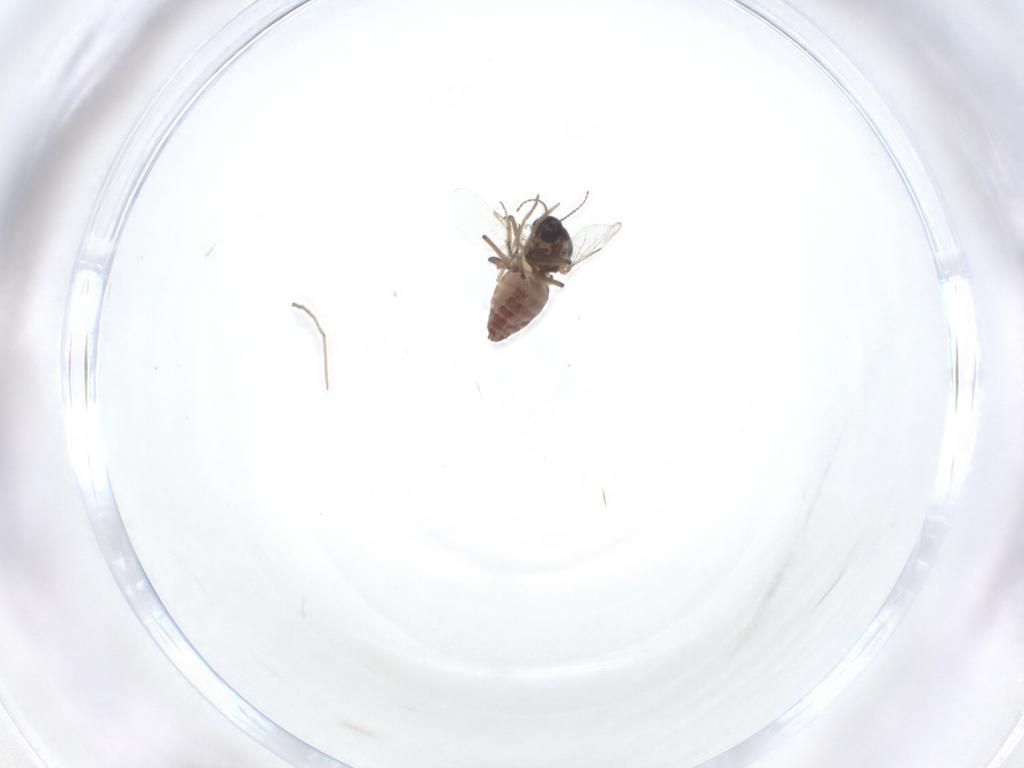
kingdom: Animalia
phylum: Arthropoda
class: Insecta
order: Diptera
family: Ceratopogonidae
